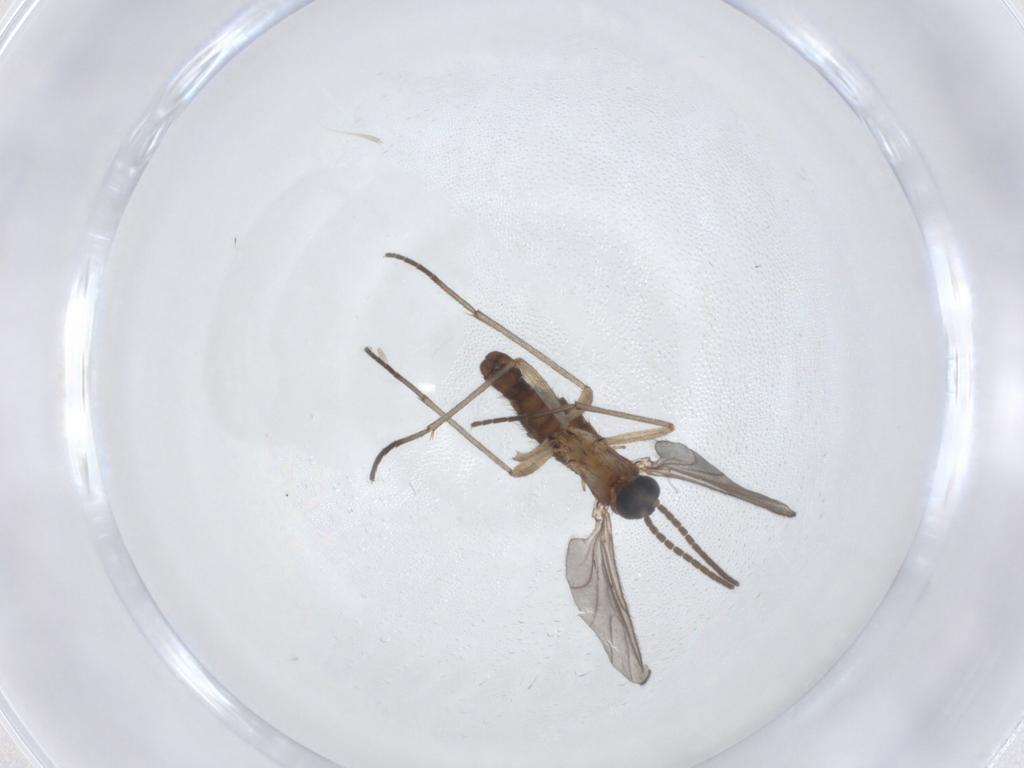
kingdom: Animalia
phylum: Arthropoda
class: Insecta
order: Diptera
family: Sciaridae
